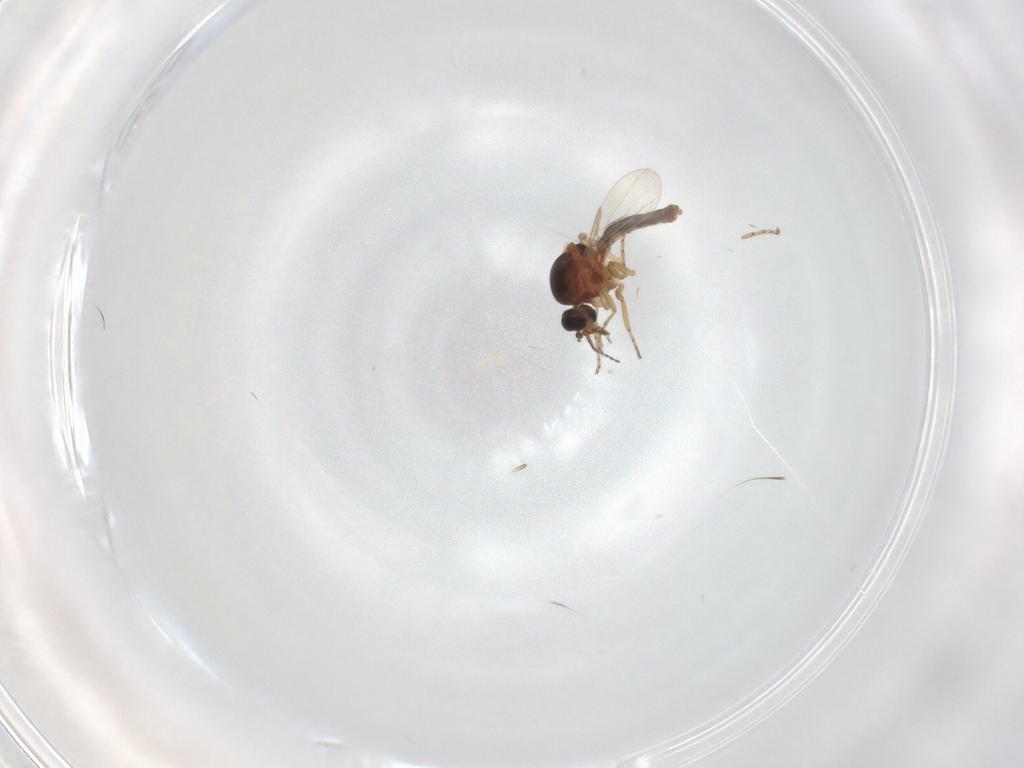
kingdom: Animalia
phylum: Arthropoda
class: Insecta
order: Diptera
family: Ceratopogonidae
